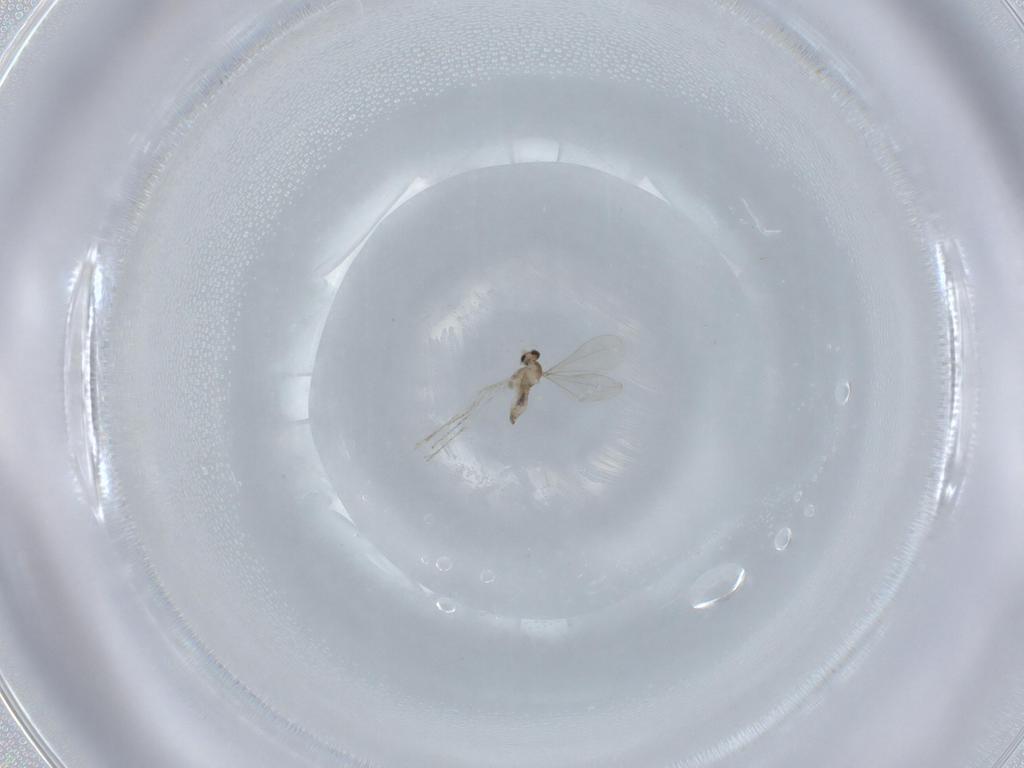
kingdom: Animalia
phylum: Arthropoda
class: Insecta
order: Diptera
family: Cecidomyiidae
